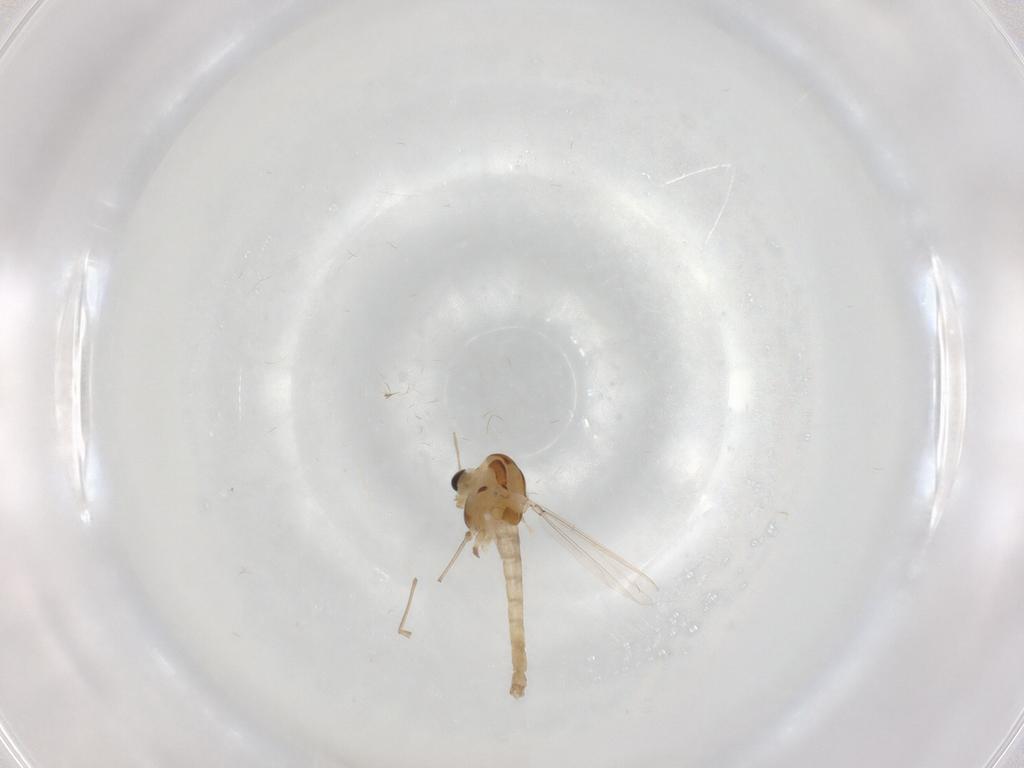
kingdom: Animalia
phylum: Arthropoda
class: Insecta
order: Diptera
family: Chironomidae
